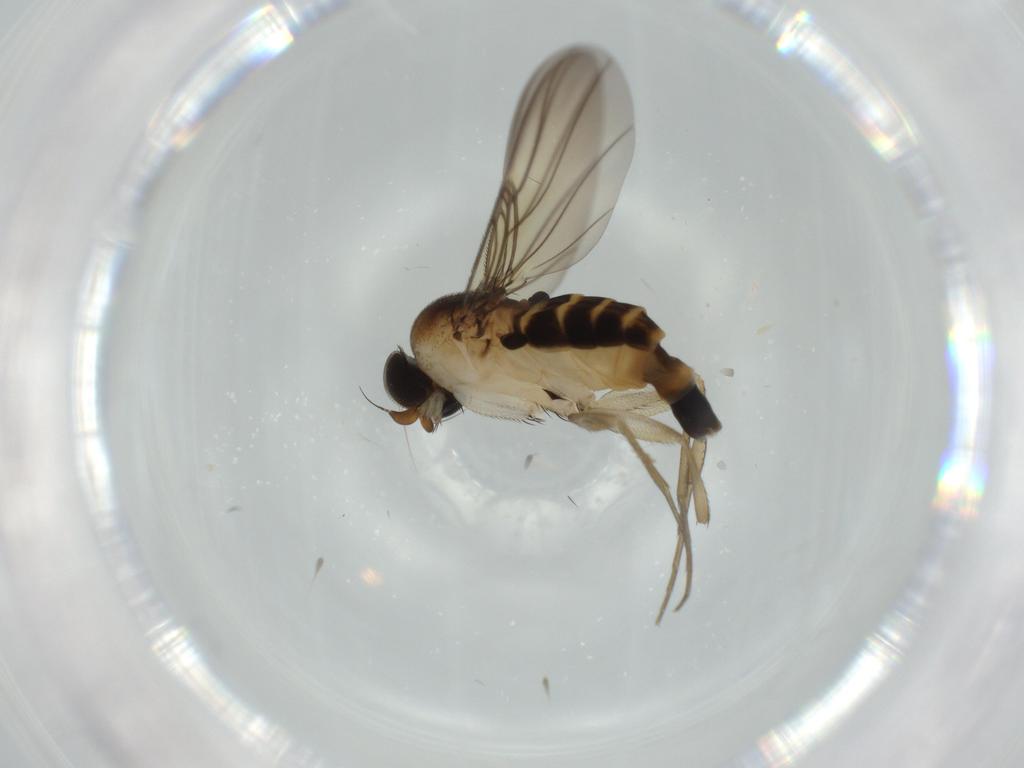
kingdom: Animalia
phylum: Arthropoda
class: Insecta
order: Diptera
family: Phoridae
